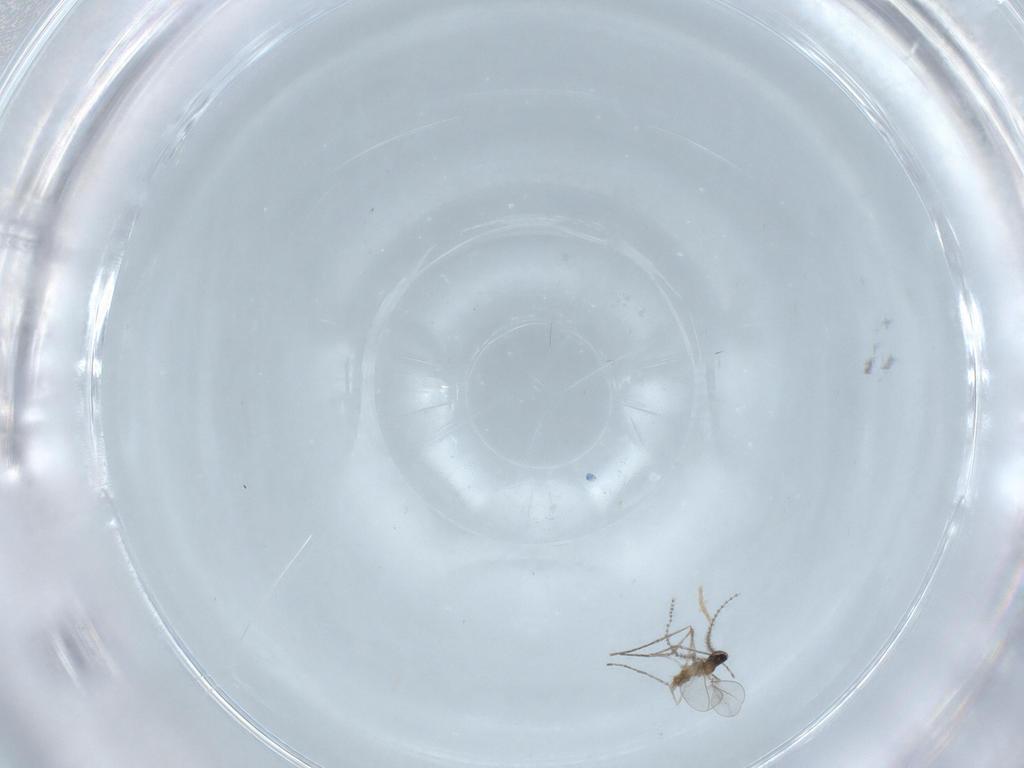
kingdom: Animalia
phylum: Arthropoda
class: Insecta
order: Diptera
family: Cecidomyiidae
